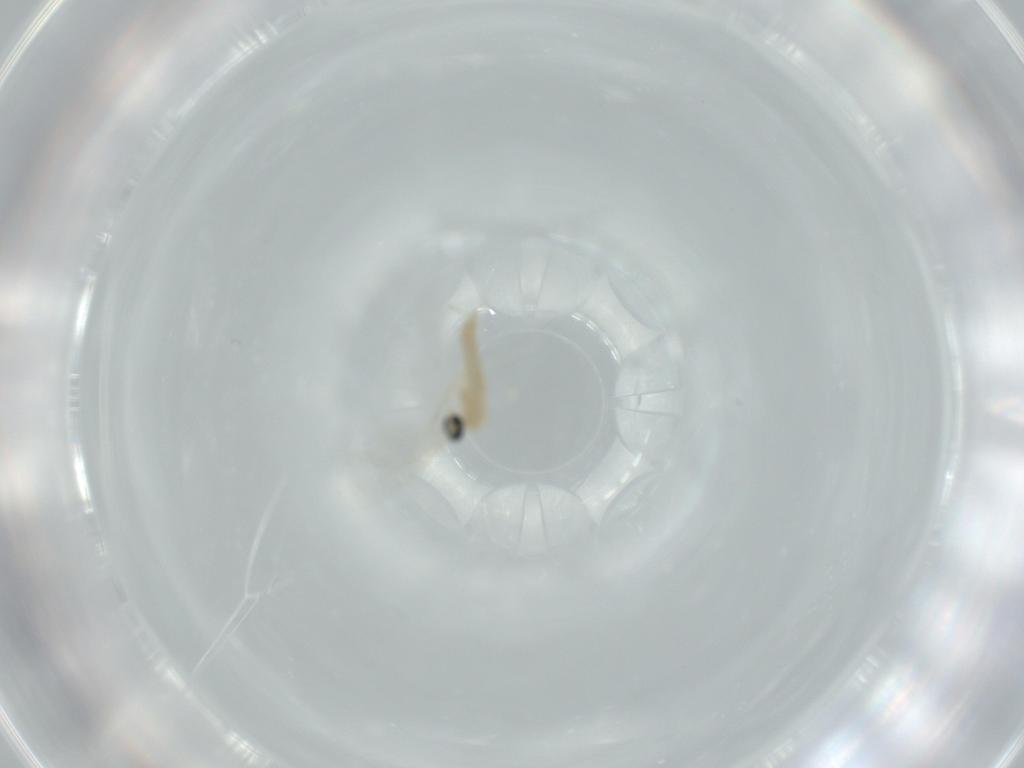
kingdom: Animalia
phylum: Arthropoda
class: Insecta
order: Diptera
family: Cecidomyiidae
